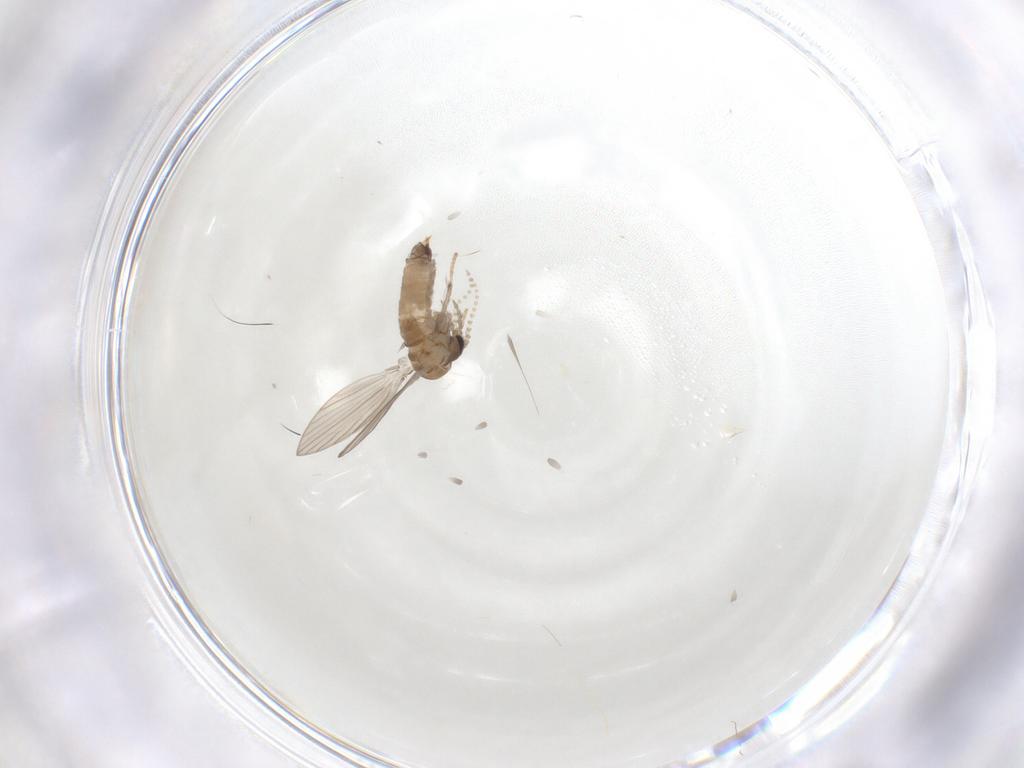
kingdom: Animalia
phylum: Arthropoda
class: Insecta
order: Diptera
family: Psychodidae
